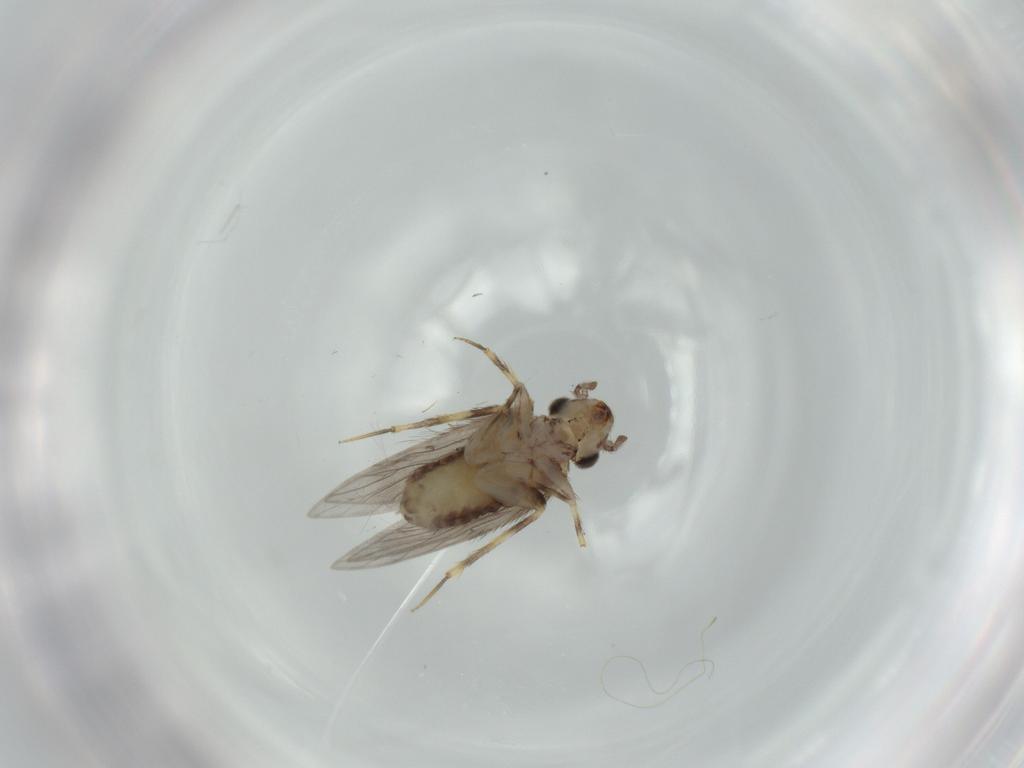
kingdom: Animalia
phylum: Arthropoda
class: Insecta
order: Psocodea
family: Lepidopsocidae
